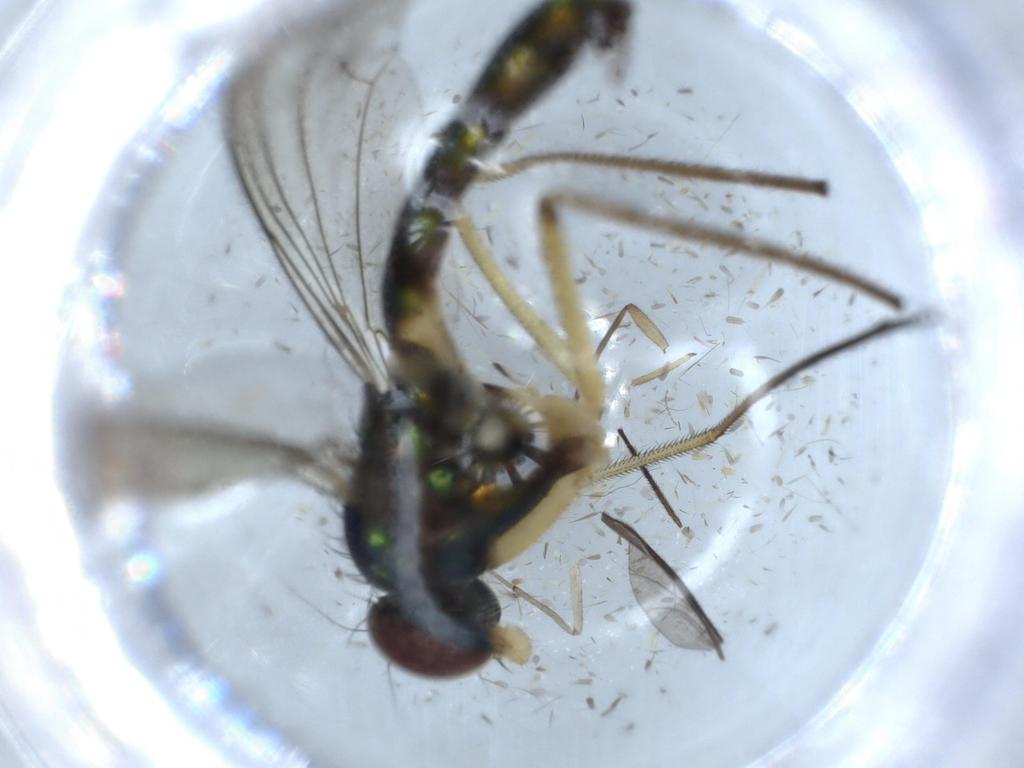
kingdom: Animalia
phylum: Arthropoda
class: Insecta
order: Diptera
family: Dolichopodidae
